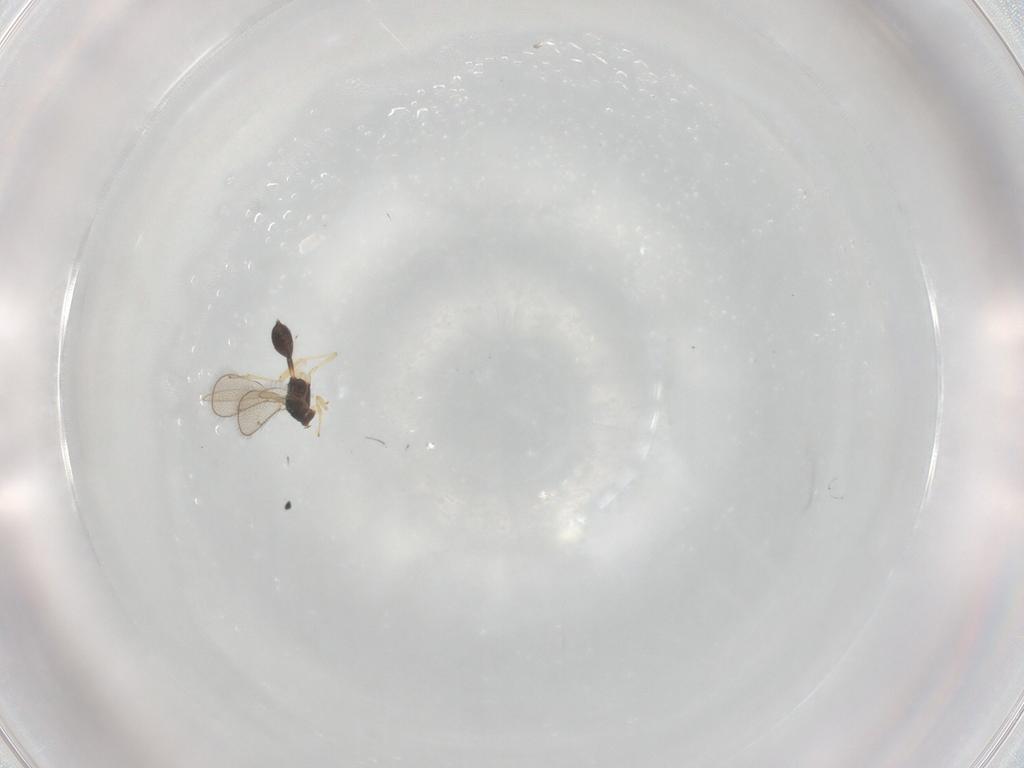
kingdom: Animalia
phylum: Arthropoda
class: Insecta
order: Hymenoptera
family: Diparidae
